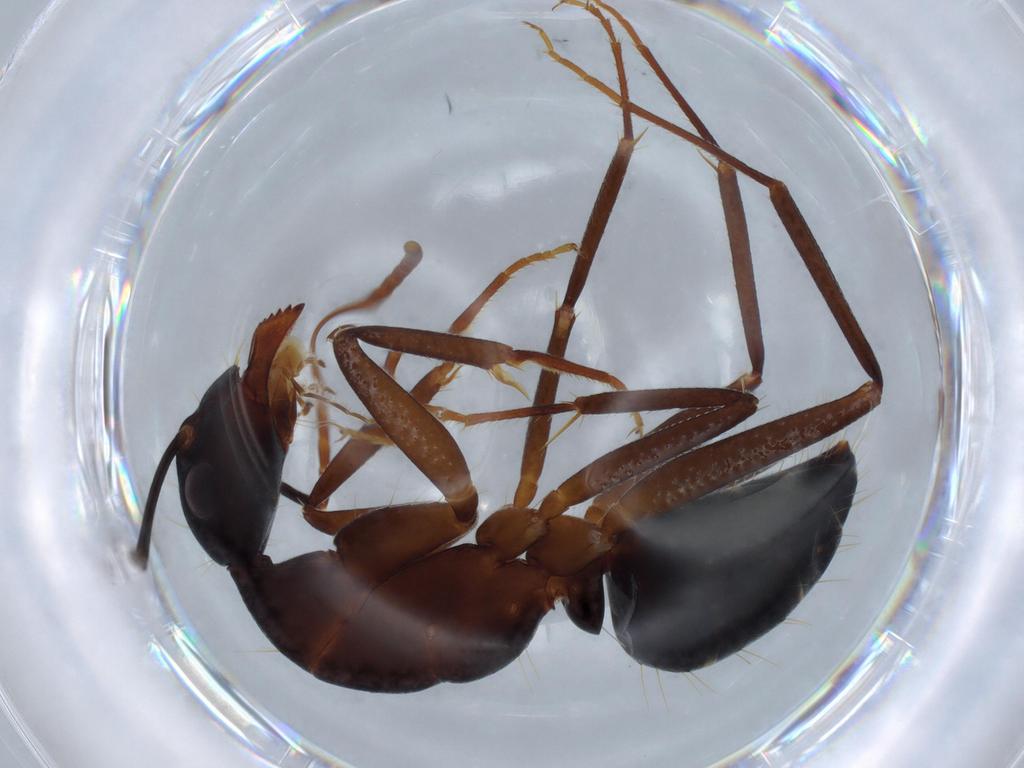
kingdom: Animalia
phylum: Arthropoda
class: Insecta
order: Hymenoptera
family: Formicidae
